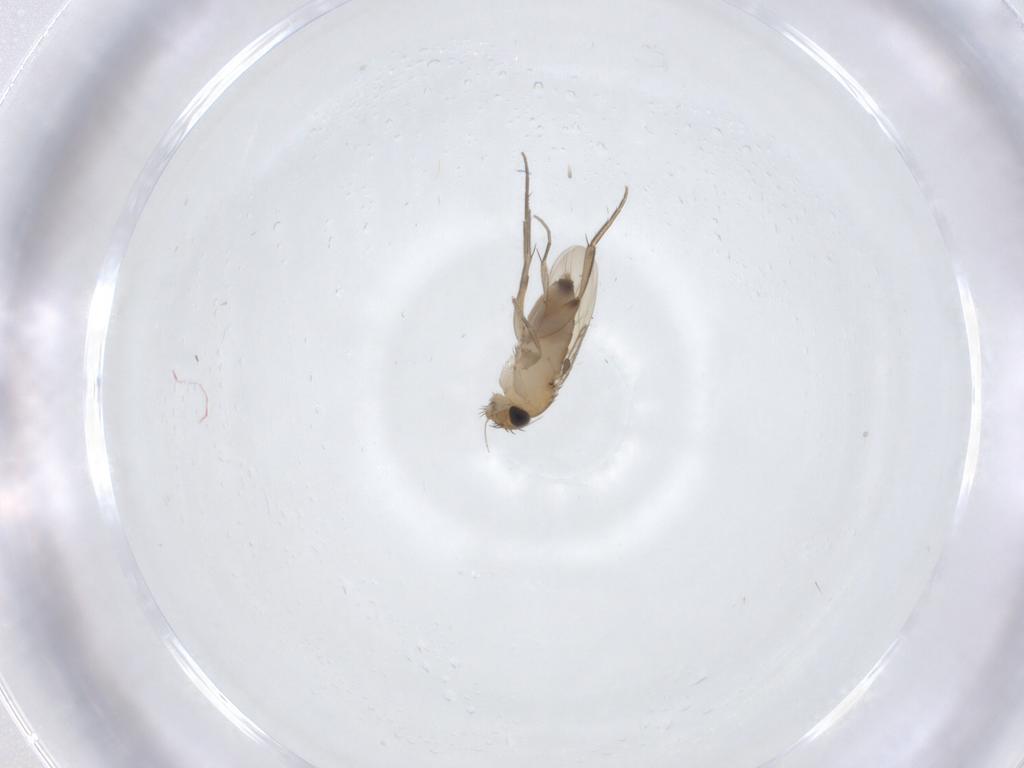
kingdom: Animalia
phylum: Arthropoda
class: Insecta
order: Diptera
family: Phoridae
